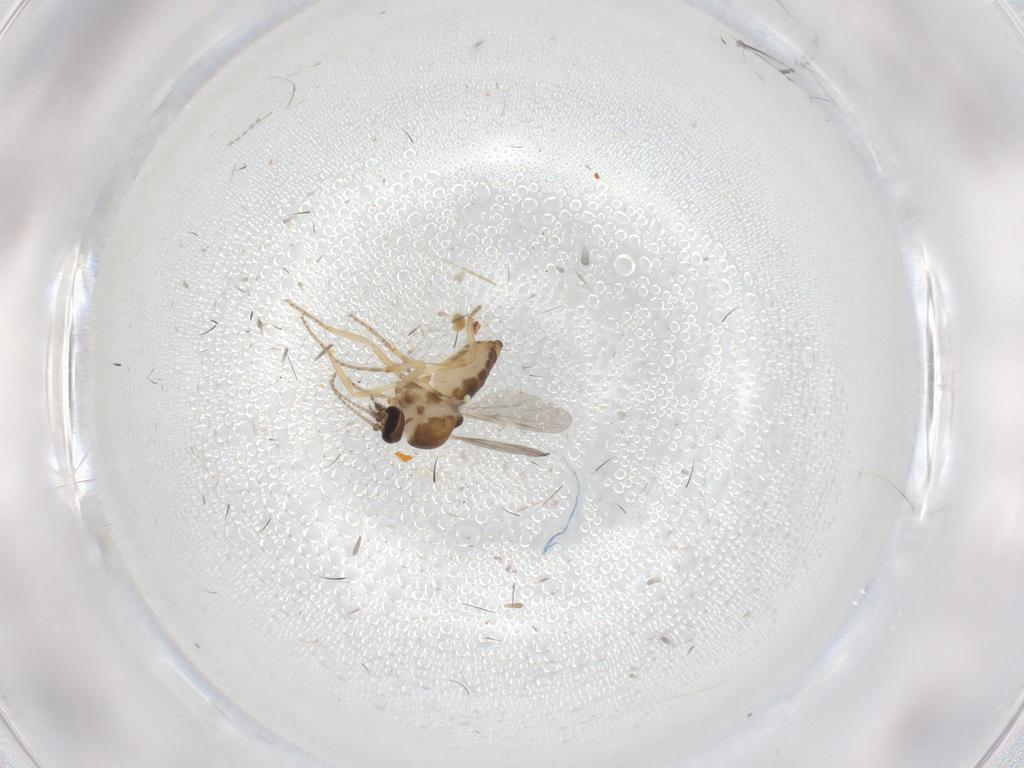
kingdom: Animalia
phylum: Arthropoda
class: Insecta
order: Diptera
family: Ceratopogonidae
